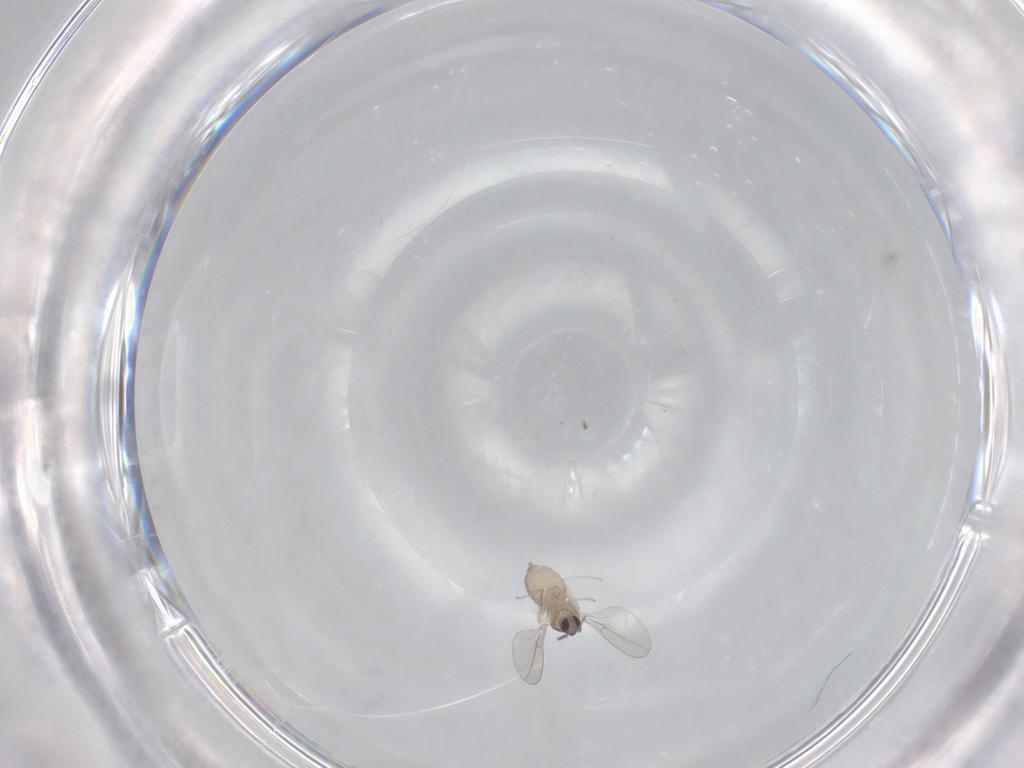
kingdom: Animalia
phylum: Arthropoda
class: Insecta
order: Diptera
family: Cecidomyiidae
